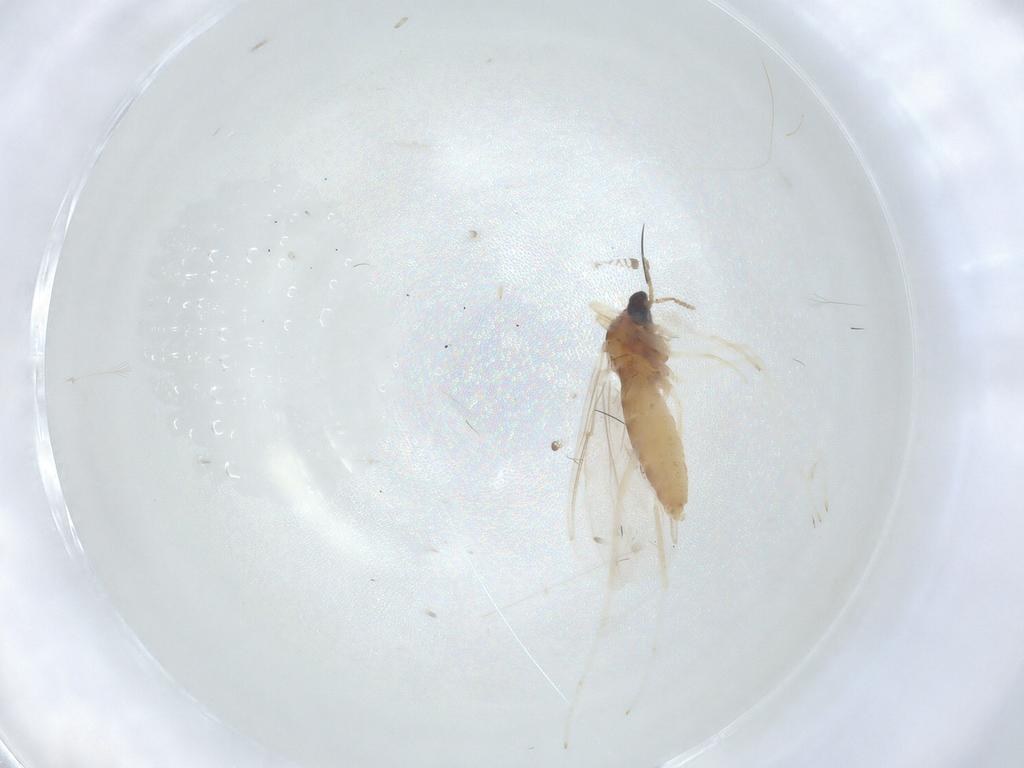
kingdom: Animalia
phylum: Arthropoda
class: Insecta
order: Diptera
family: Cecidomyiidae
